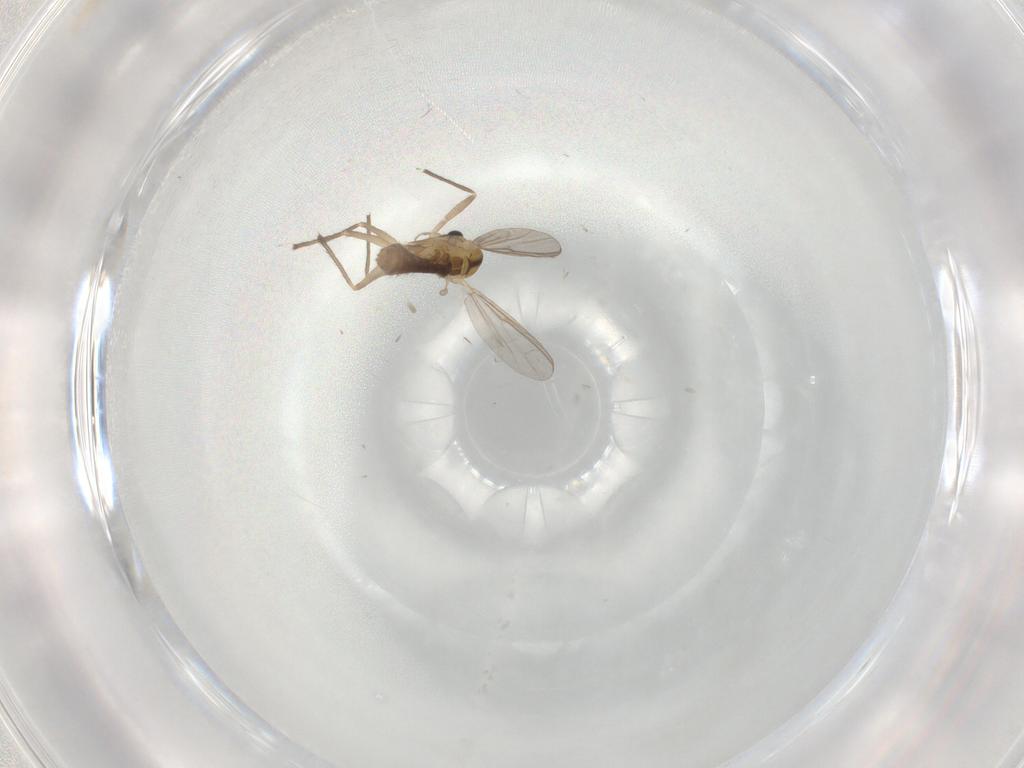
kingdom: Animalia
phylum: Arthropoda
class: Insecta
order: Diptera
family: Chironomidae
